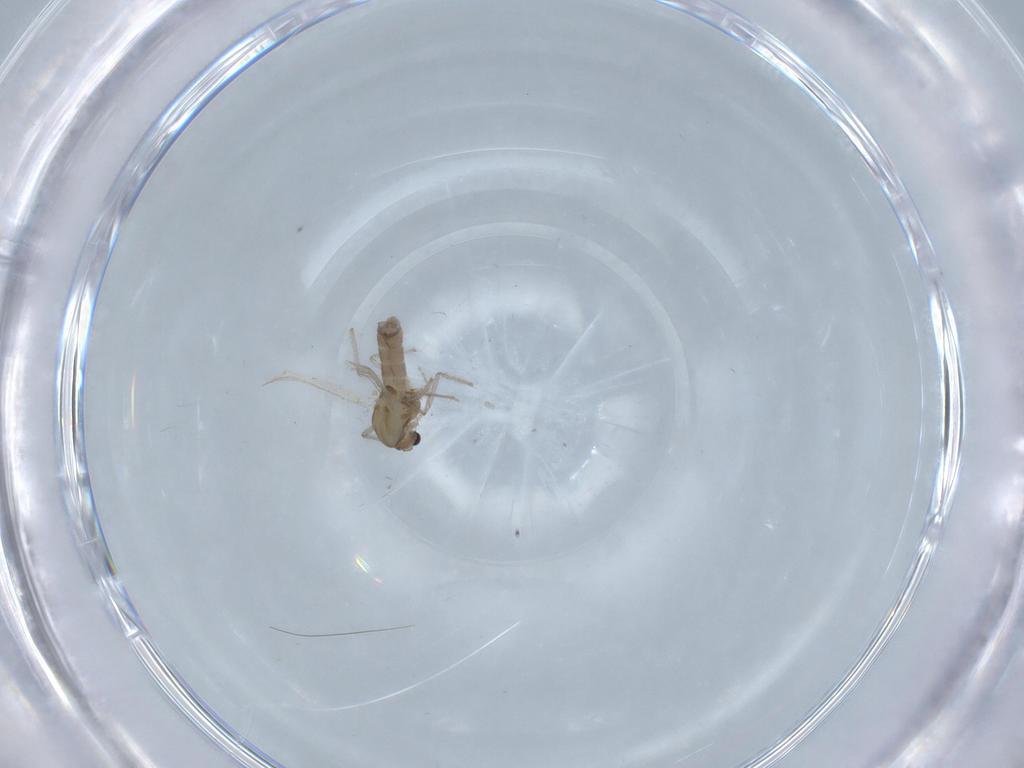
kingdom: Animalia
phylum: Arthropoda
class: Insecta
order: Diptera
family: Chironomidae
